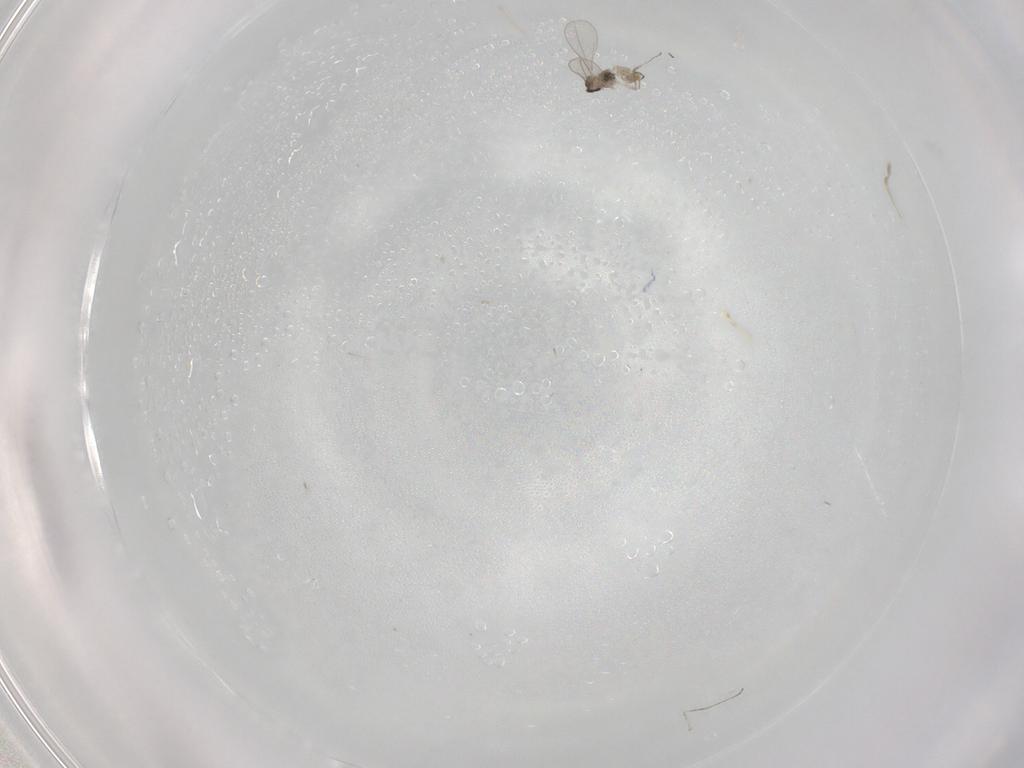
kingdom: Animalia
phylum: Arthropoda
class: Insecta
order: Diptera
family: Cecidomyiidae
